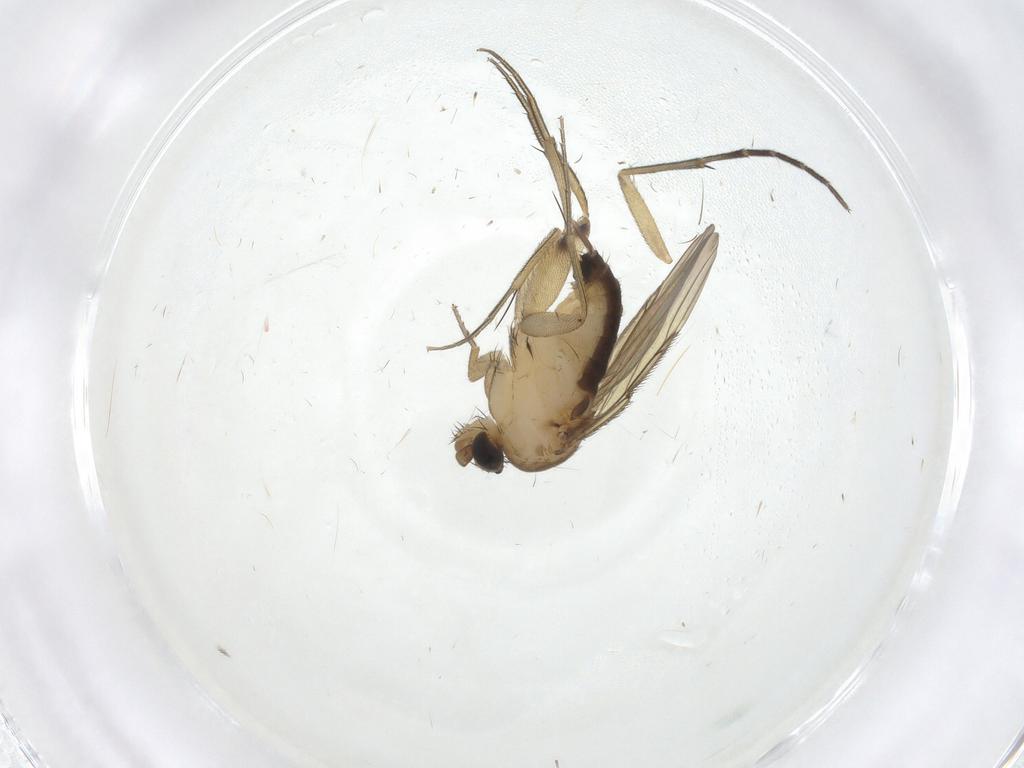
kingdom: Animalia
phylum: Arthropoda
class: Insecta
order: Diptera
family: Phoridae
